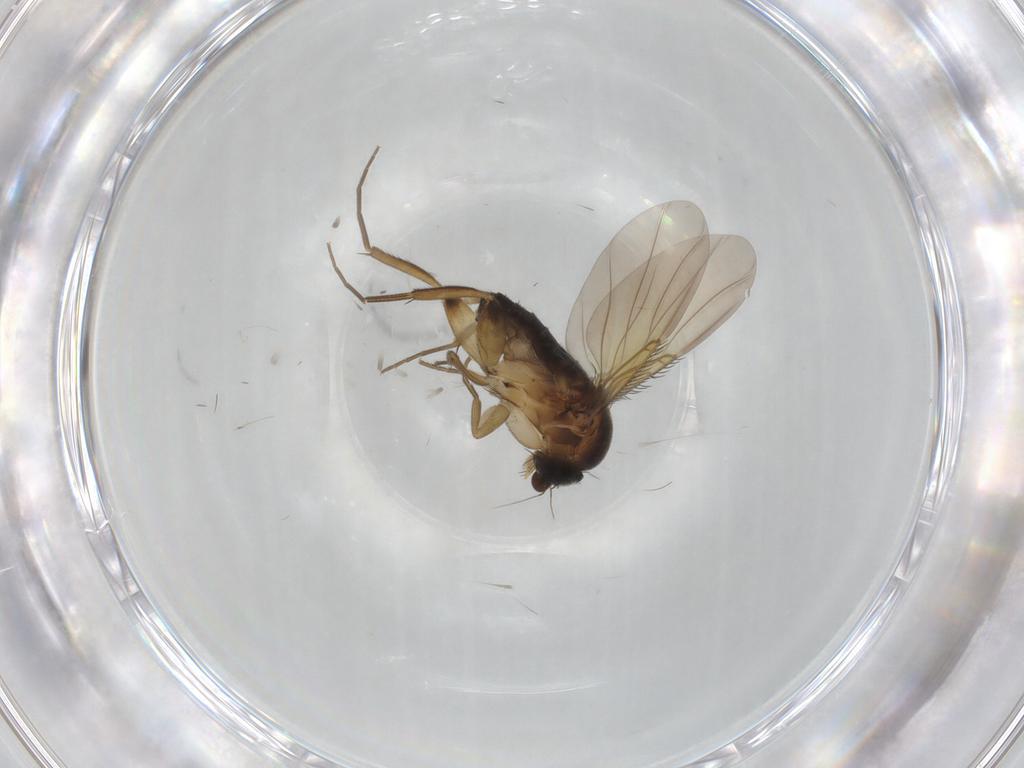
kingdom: Animalia
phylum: Arthropoda
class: Insecta
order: Diptera
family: Phoridae
